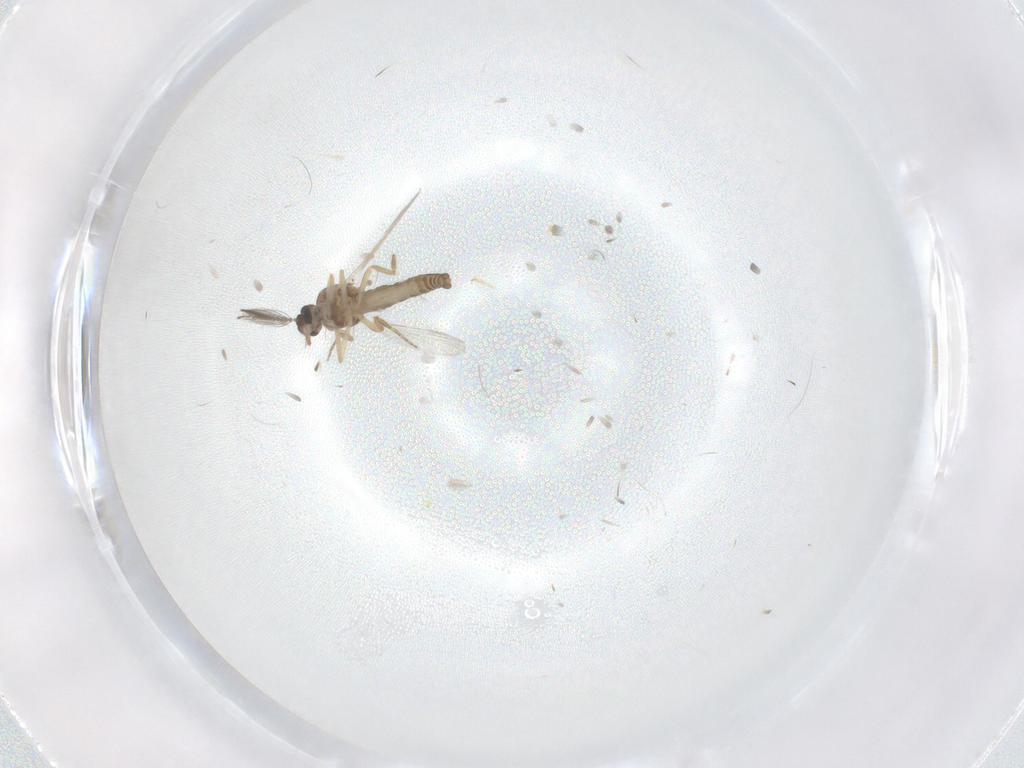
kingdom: Animalia
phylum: Arthropoda
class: Insecta
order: Diptera
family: Ceratopogonidae
